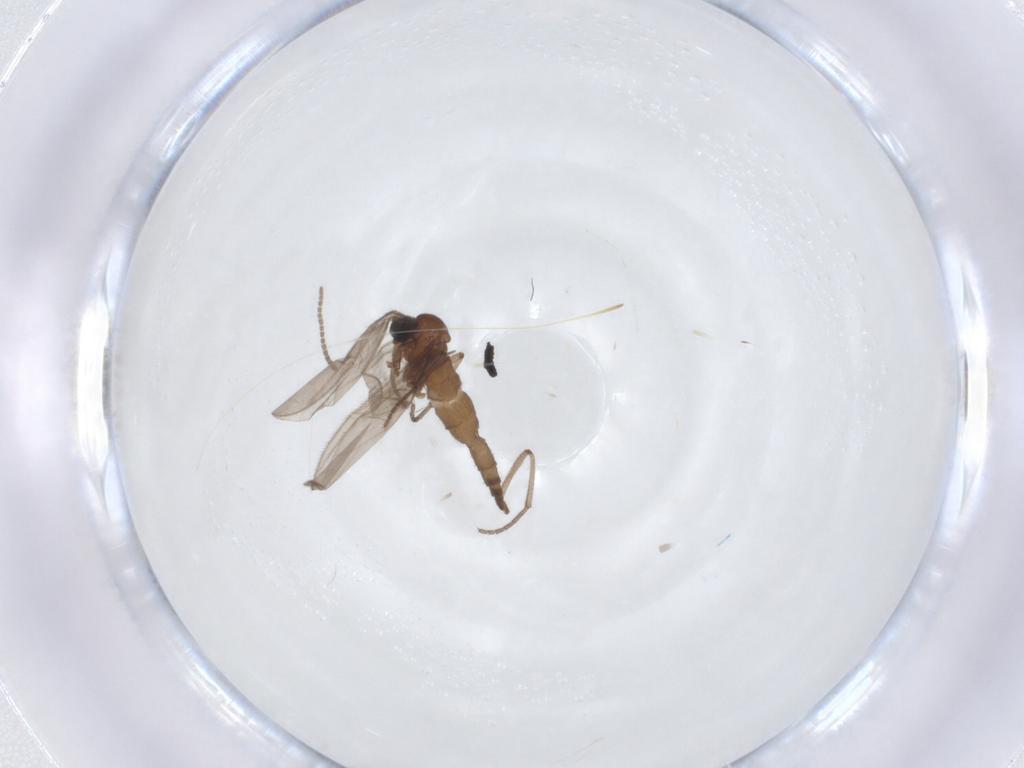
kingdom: Animalia
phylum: Arthropoda
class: Insecta
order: Diptera
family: Sciaridae
